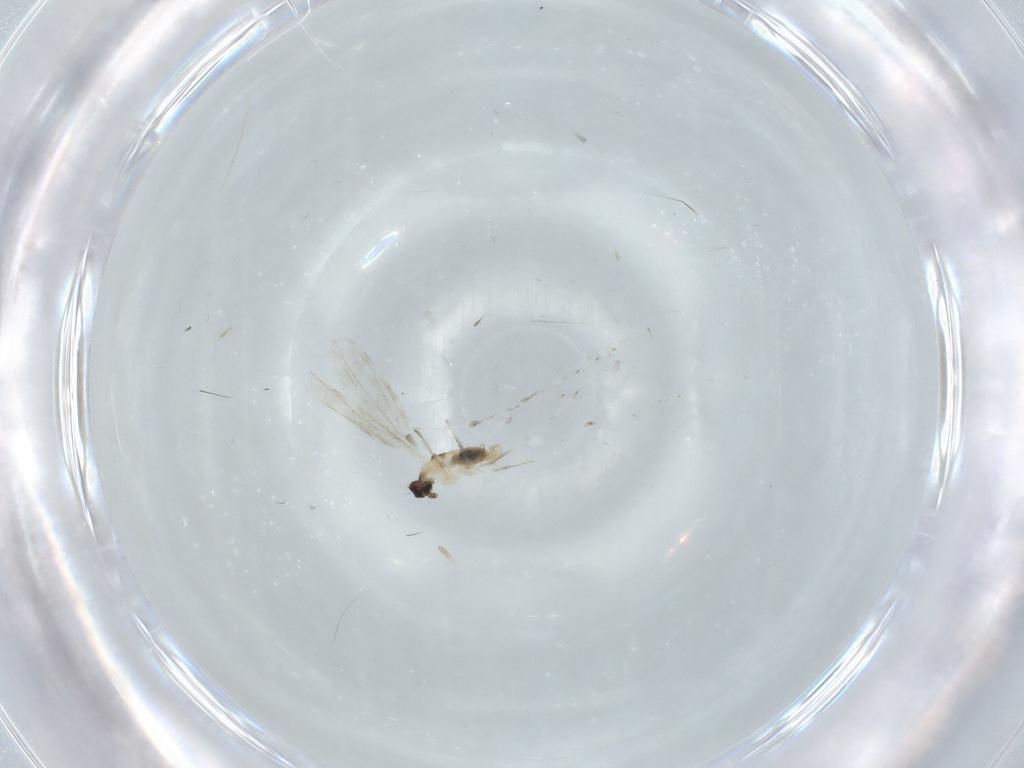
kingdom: Animalia
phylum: Arthropoda
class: Insecta
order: Diptera
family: Cecidomyiidae
